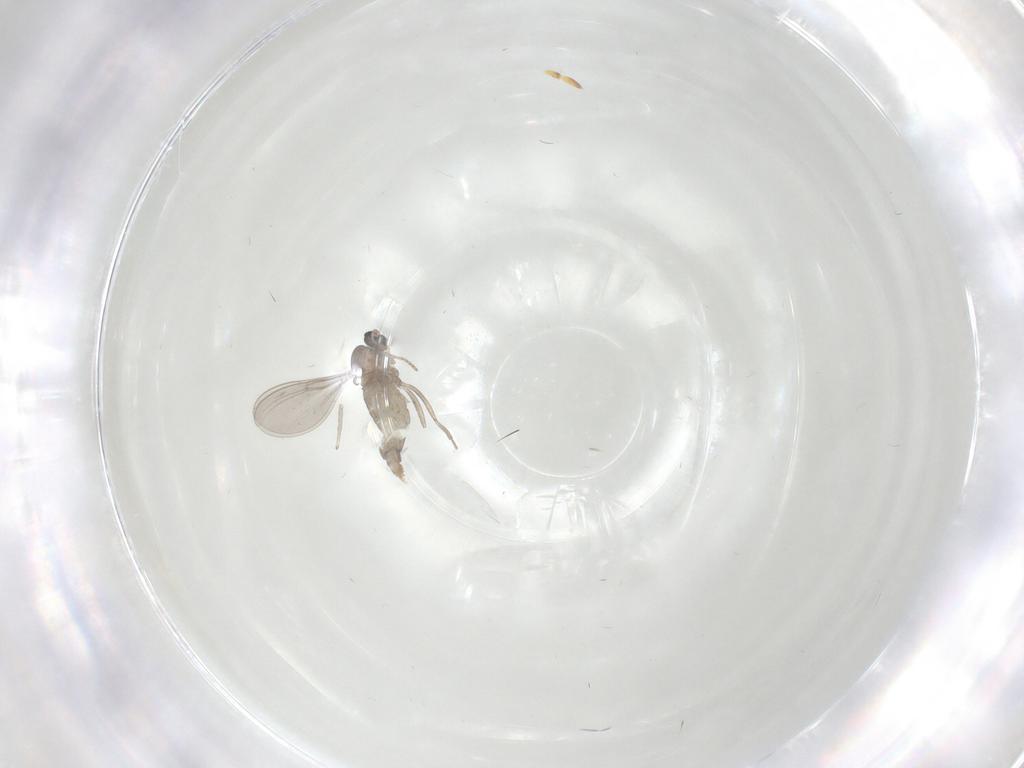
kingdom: Animalia
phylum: Arthropoda
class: Insecta
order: Diptera
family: Cecidomyiidae
